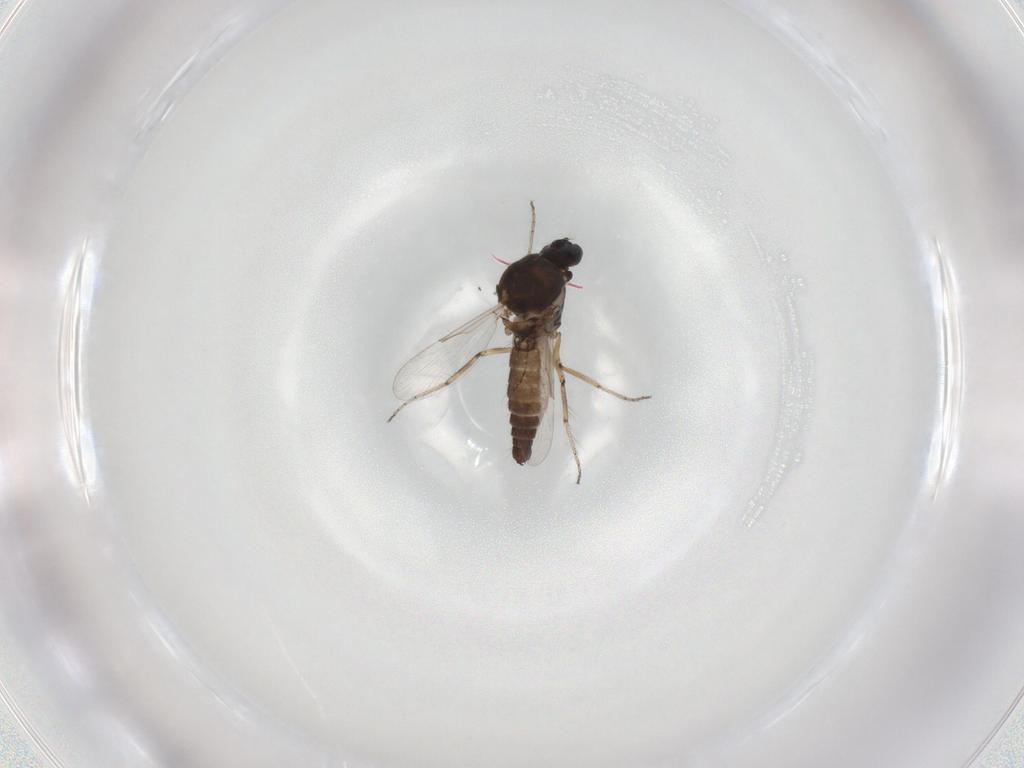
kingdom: Animalia
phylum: Arthropoda
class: Insecta
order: Diptera
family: Ceratopogonidae
